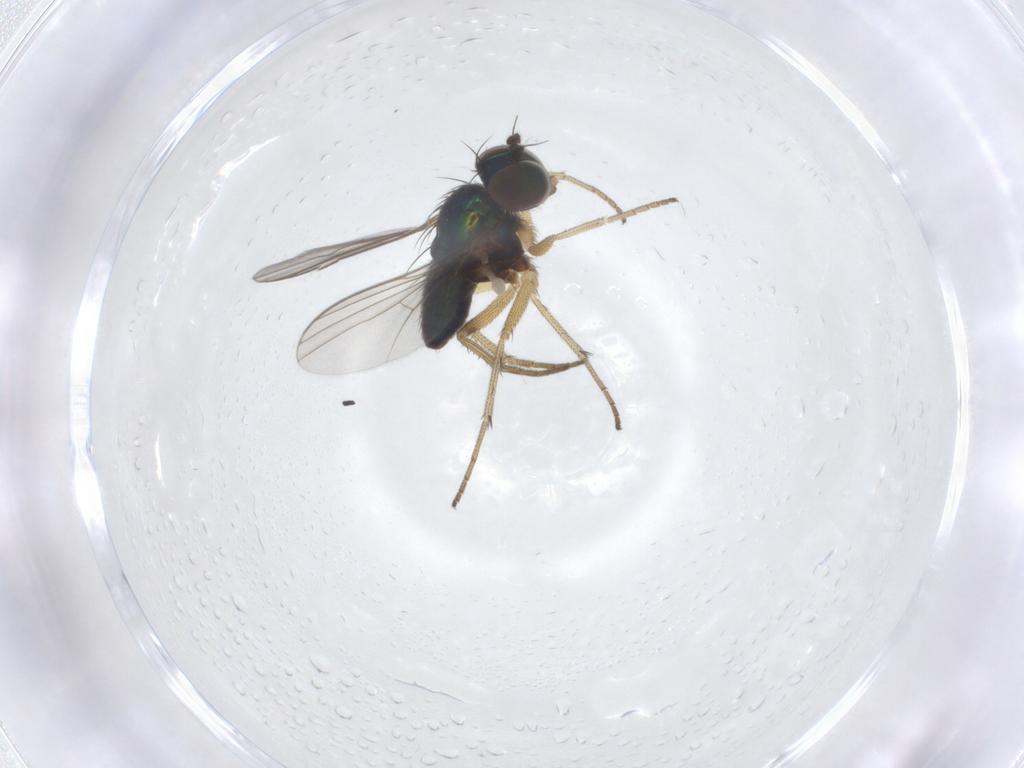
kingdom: Animalia
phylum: Arthropoda
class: Insecta
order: Diptera
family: Dolichopodidae
